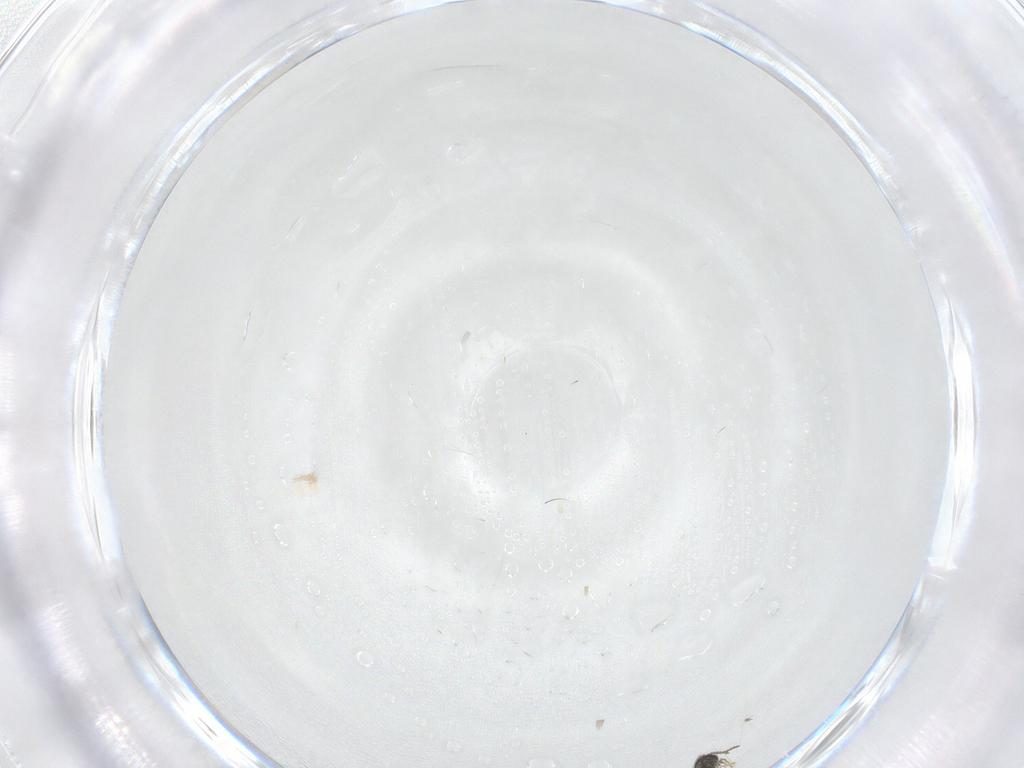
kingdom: Animalia
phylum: Arthropoda
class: Insecta
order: Hymenoptera
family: Scelionidae
